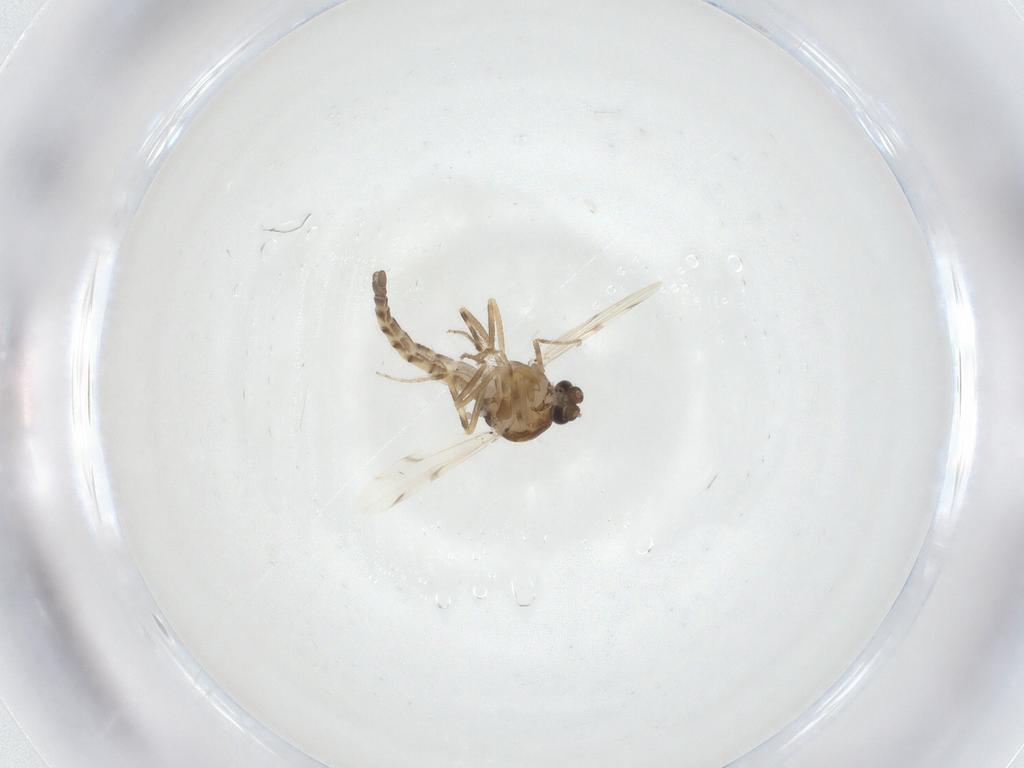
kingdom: Animalia
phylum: Arthropoda
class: Insecta
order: Diptera
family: Ceratopogonidae
